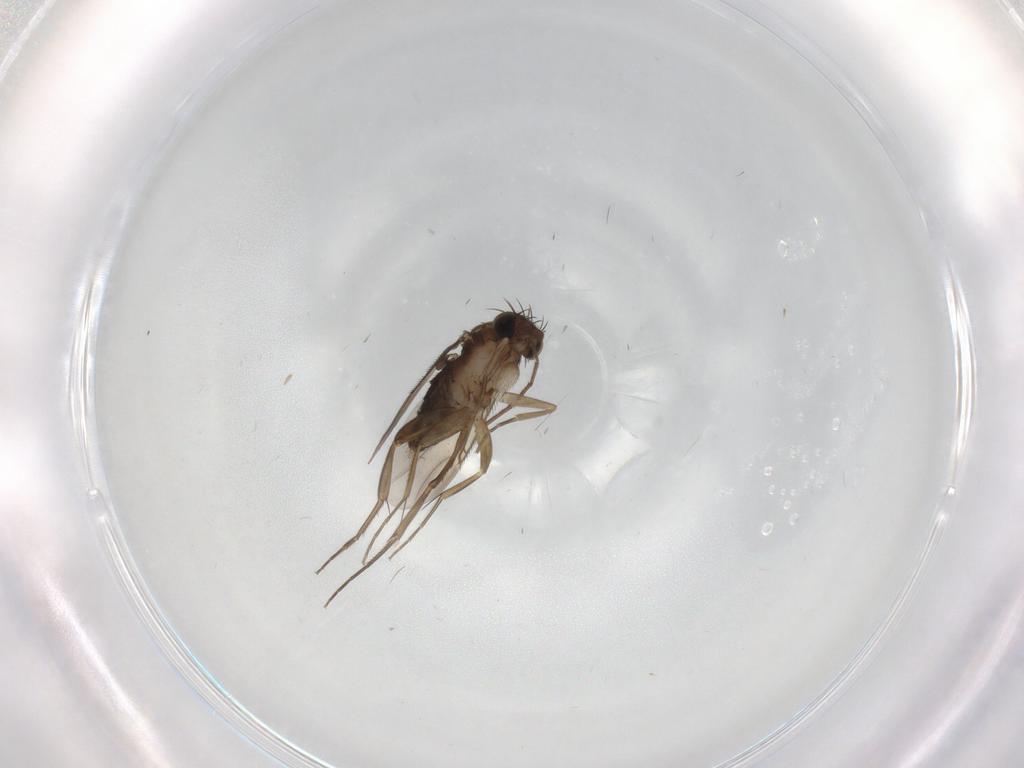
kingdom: Animalia
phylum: Arthropoda
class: Insecta
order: Diptera
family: Phoridae
